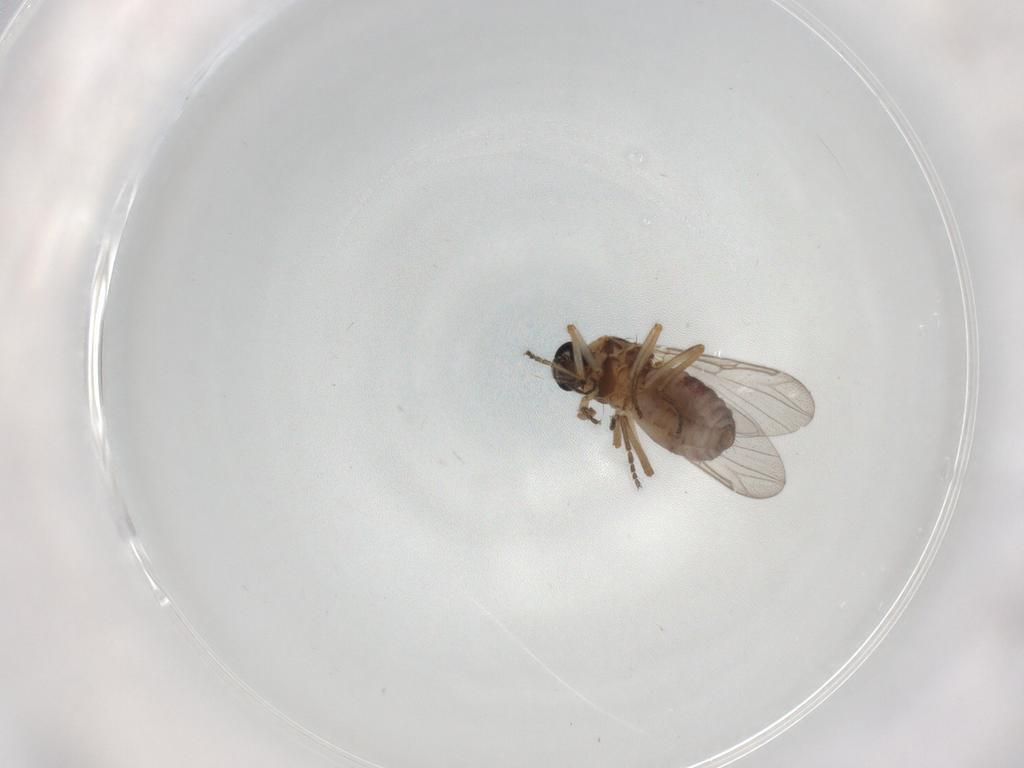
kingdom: Animalia
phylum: Arthropoda
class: Insecta
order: Diptera
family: Ceratopogonidae
